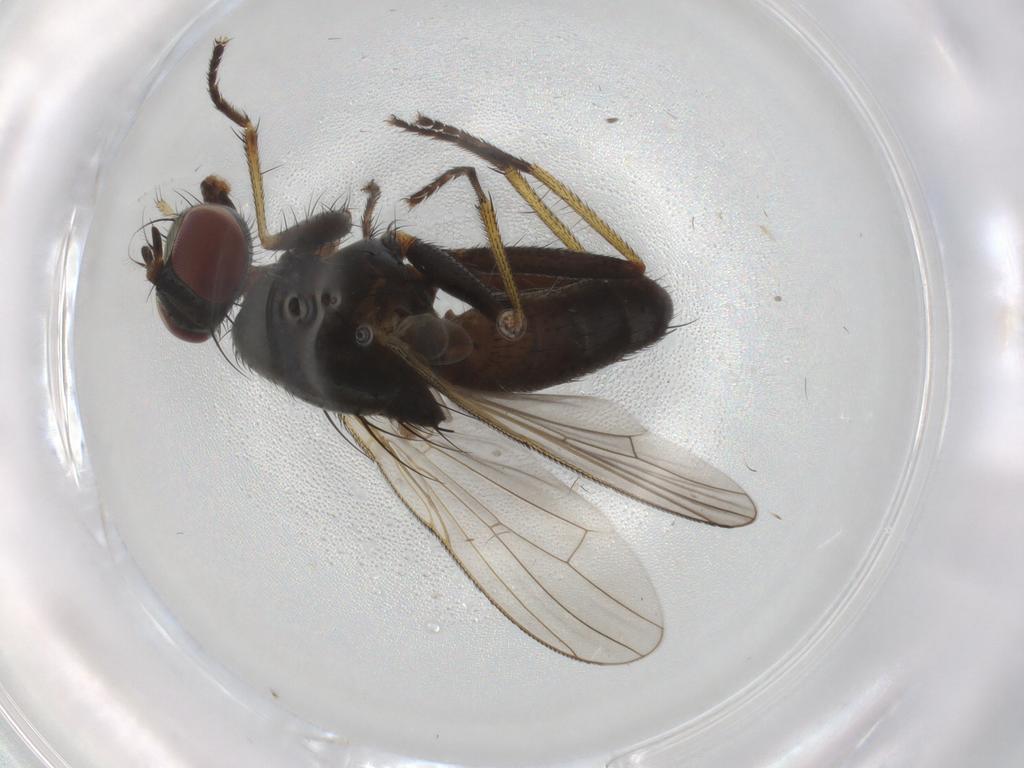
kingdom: Animalia
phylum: Arthropoda
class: Insecta
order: Diptera
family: Muscidae
